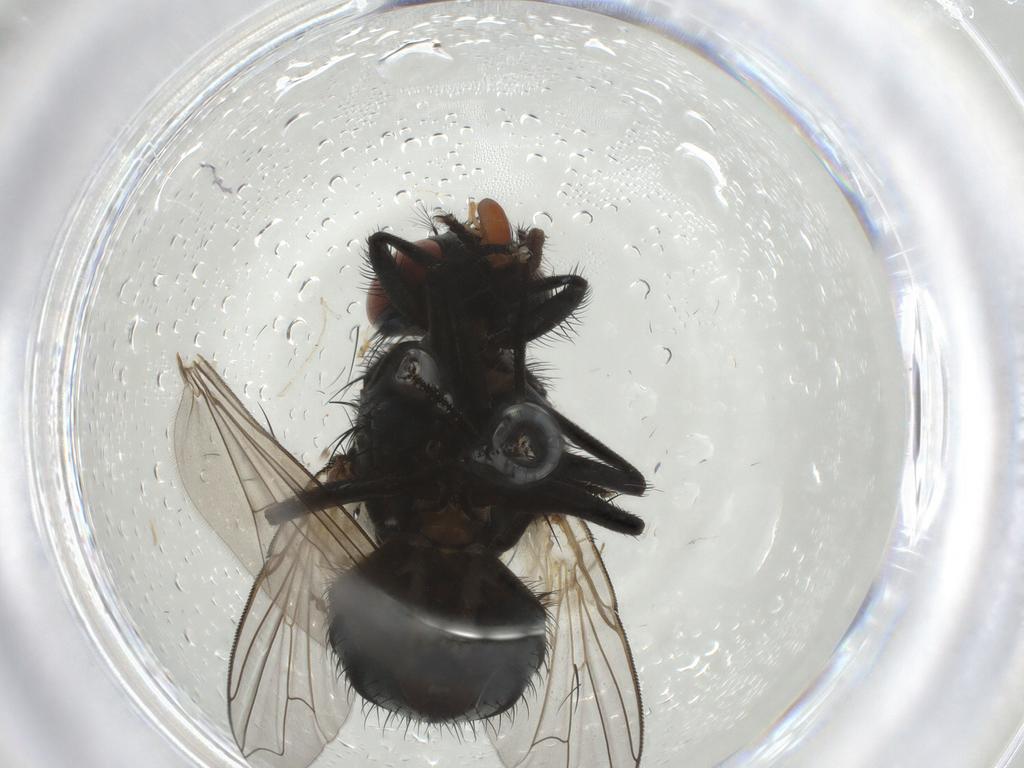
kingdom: Animalia
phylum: Arthropoda
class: Insecta
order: Diptera
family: Muscidae
